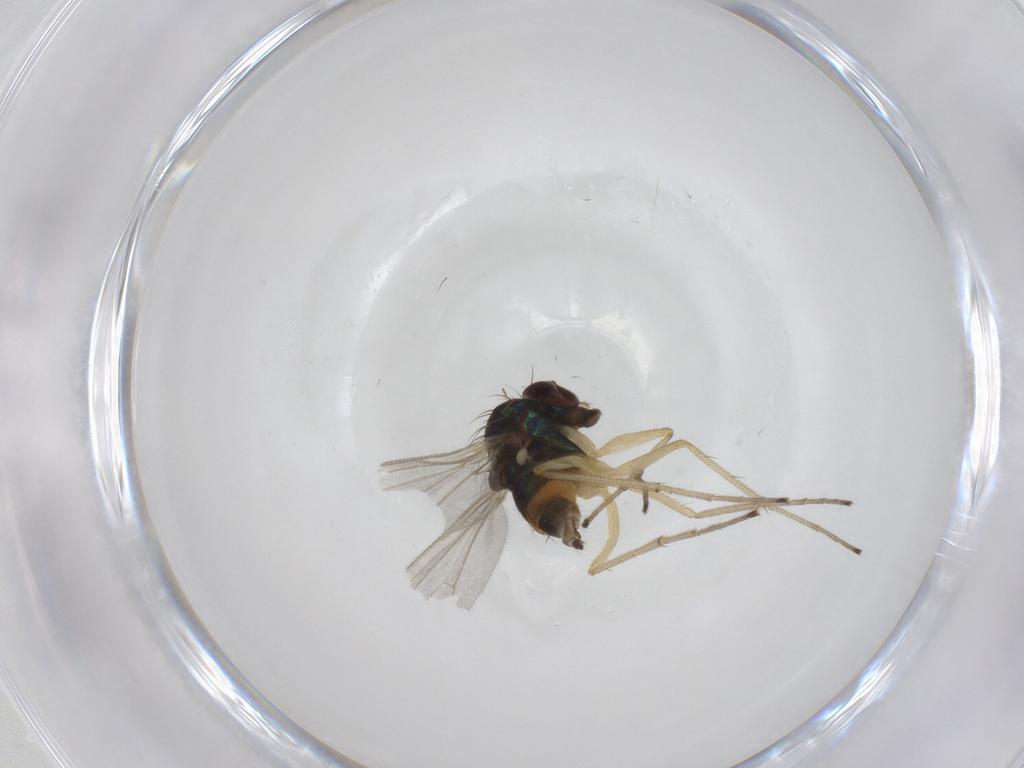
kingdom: Animalia
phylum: Arthropoda
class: Insecta
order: Diptera
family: Dolichopodidae
